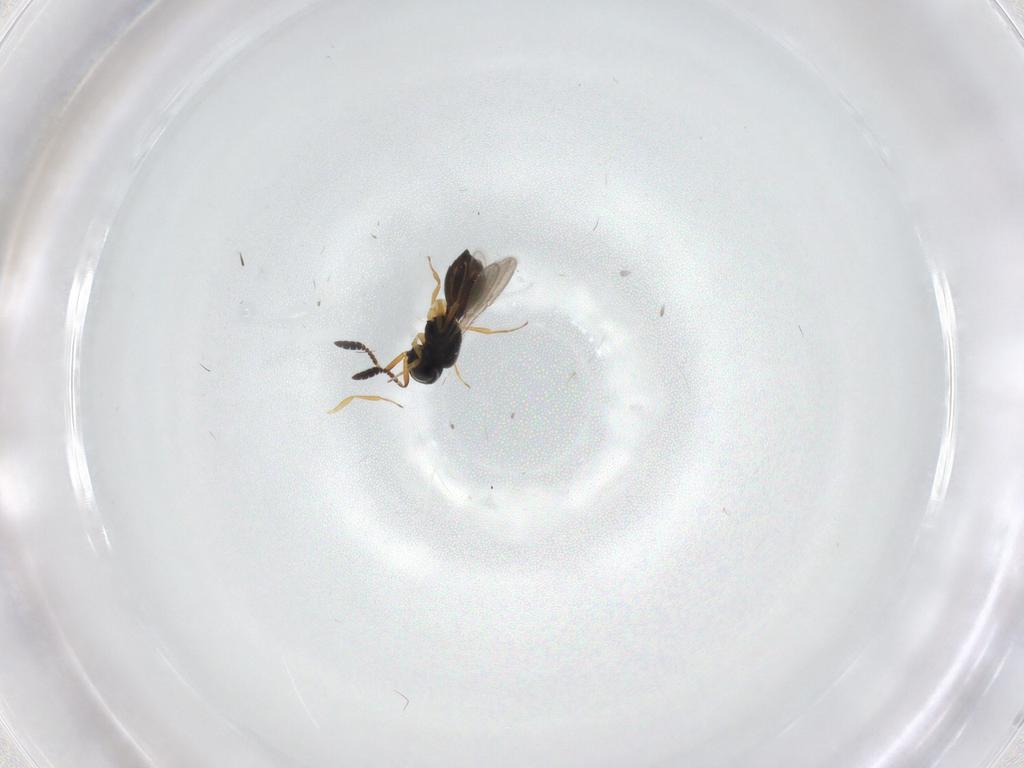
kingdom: Animalia
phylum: Arthropoda
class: Insecta
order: Hymenoptera
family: Scelionidae
